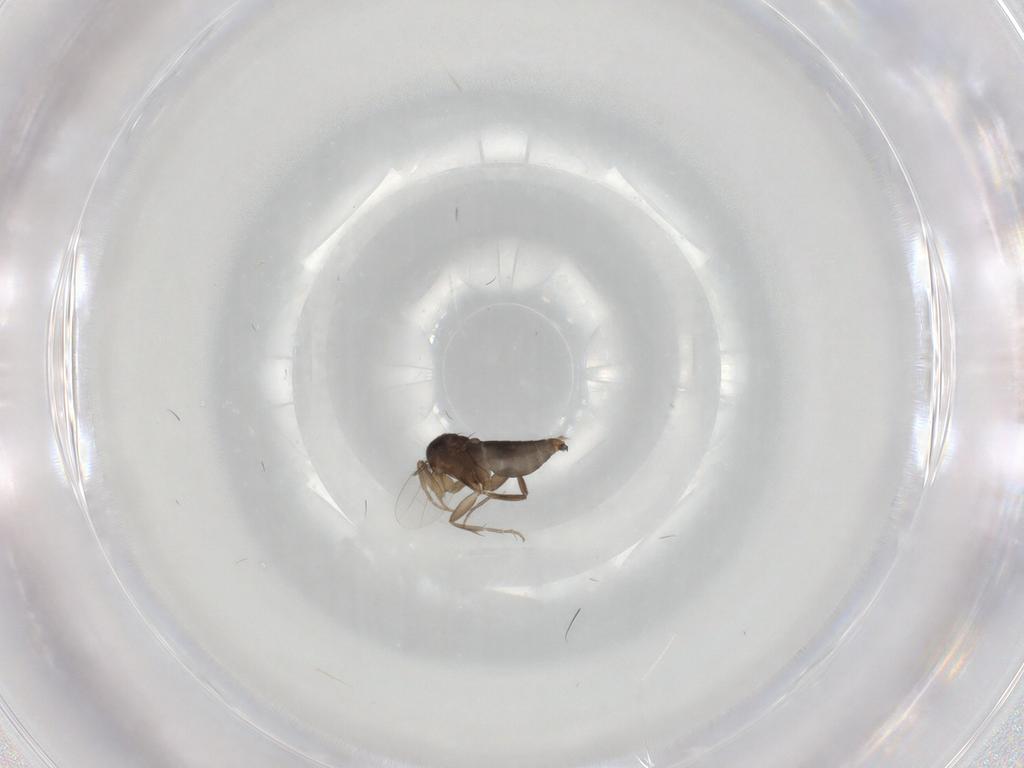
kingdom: Animalia
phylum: Arthropoda
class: Insecta
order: Diptera
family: Phoridae
